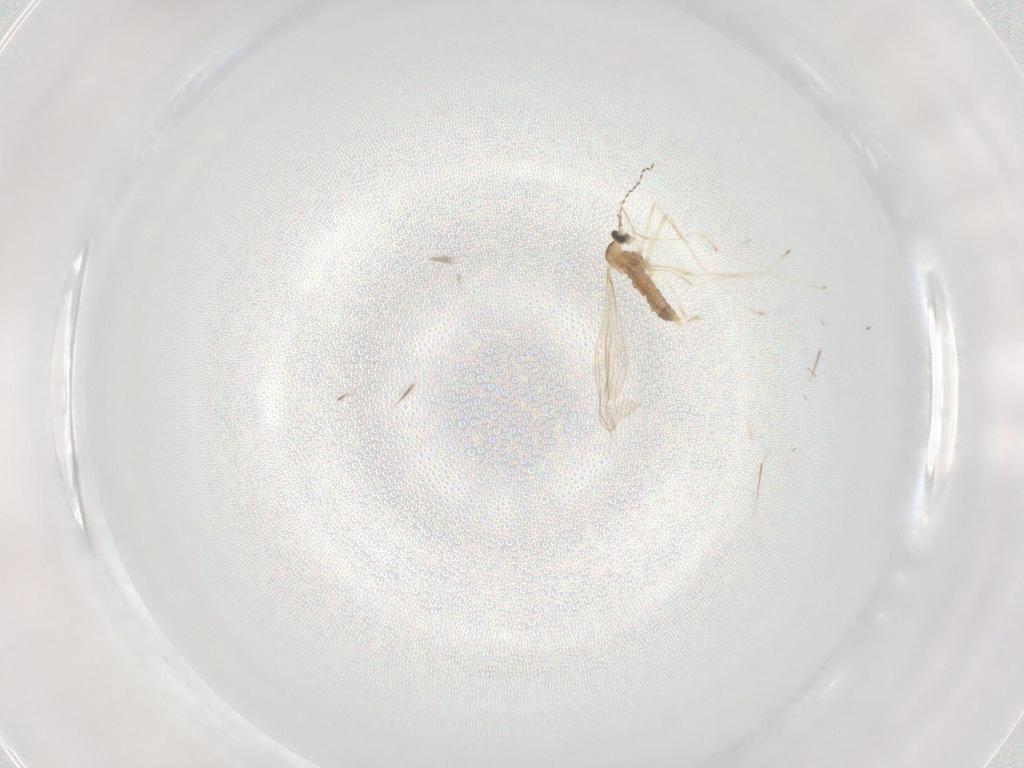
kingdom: Animalia
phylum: Arthropoda
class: Insecta
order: Diptera
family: Cecidomyiidae
